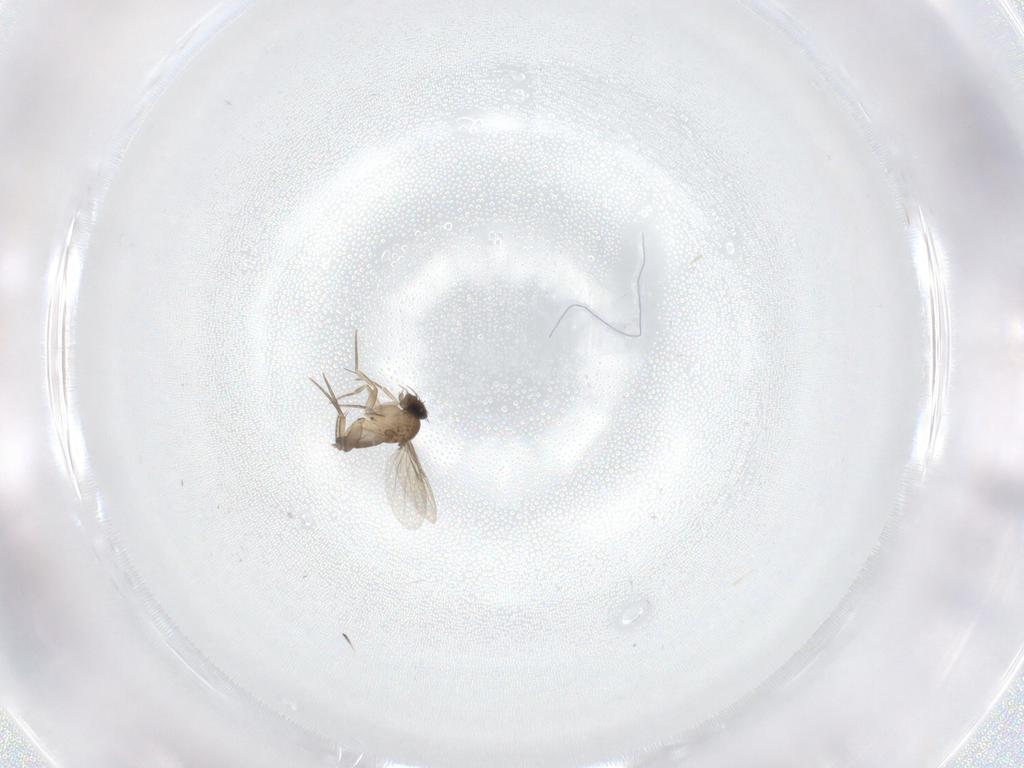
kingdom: Animalia
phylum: Arthropoda
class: Insecta
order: Diptera
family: Phoridae
